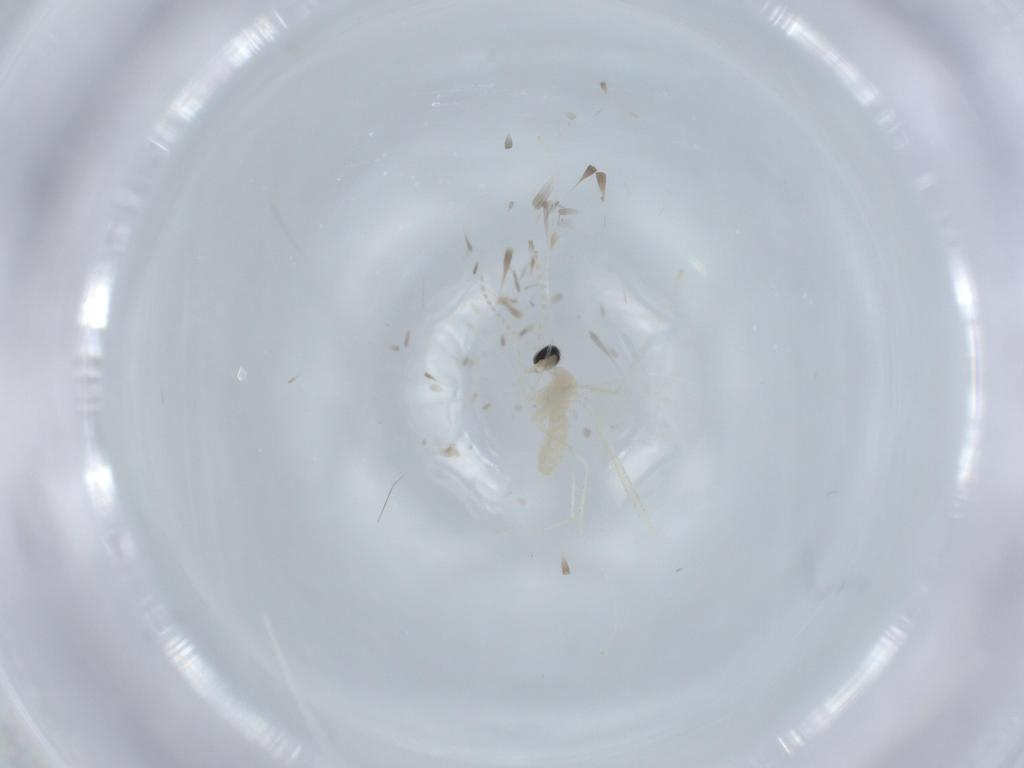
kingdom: Animalia
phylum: Arthropoda
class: Insecta
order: Diptera
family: Cecidomyiidae
